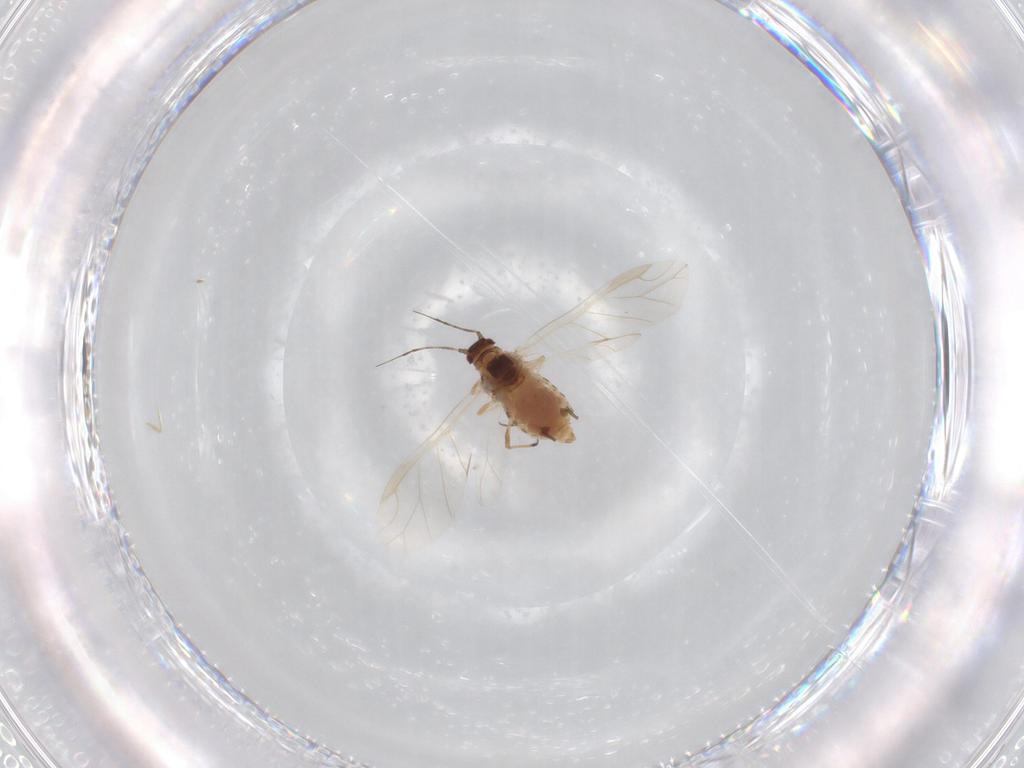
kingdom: Animalia
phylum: Arthropoda
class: Insecta
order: Hemiptera
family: Aphididae
